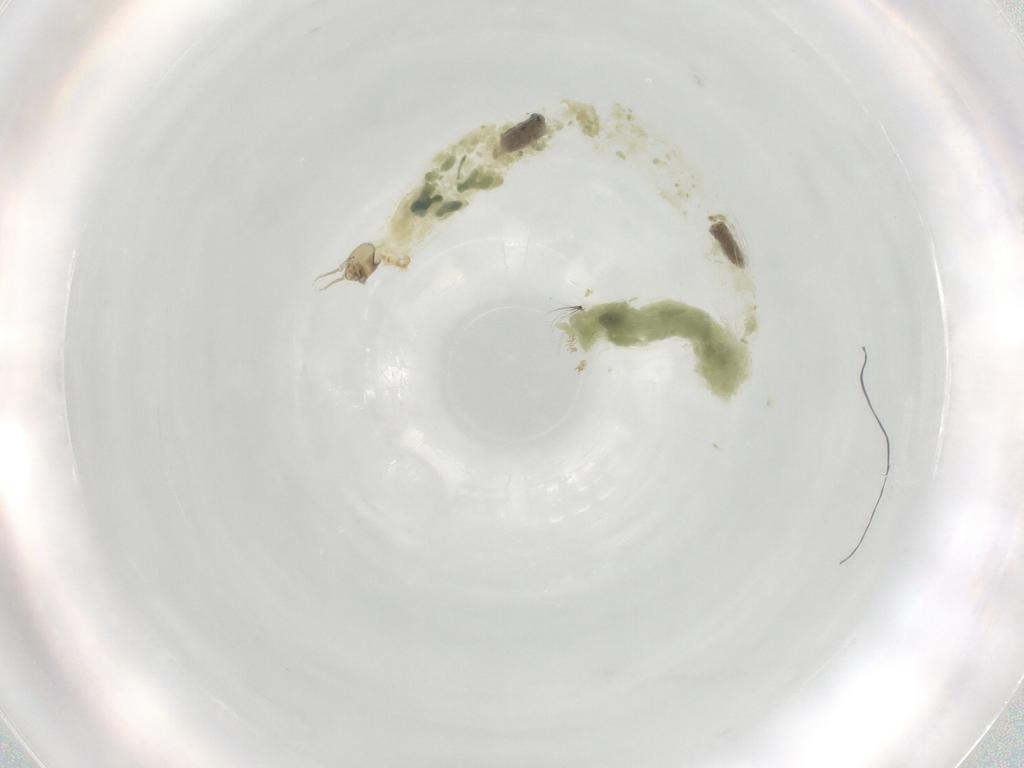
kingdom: Animalia
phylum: Arthropoda
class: Insecta
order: Diptera
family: Chironomidae
